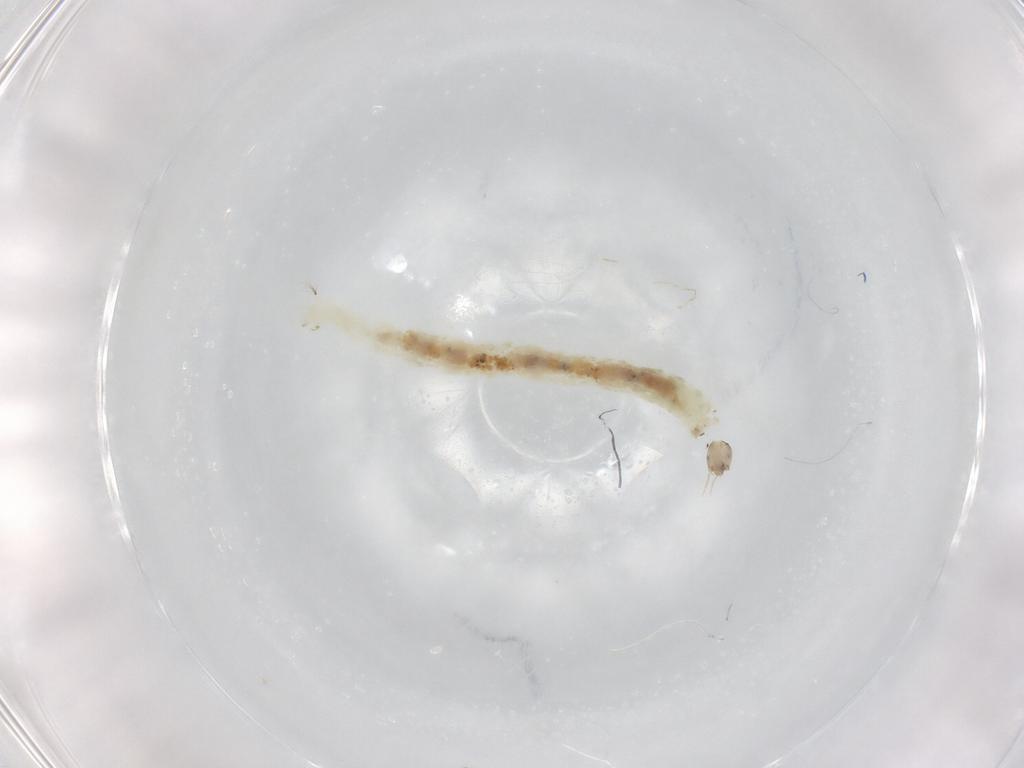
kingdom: Animalia
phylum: Arthropoda
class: Insecta
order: Diptera
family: Chironomidae
